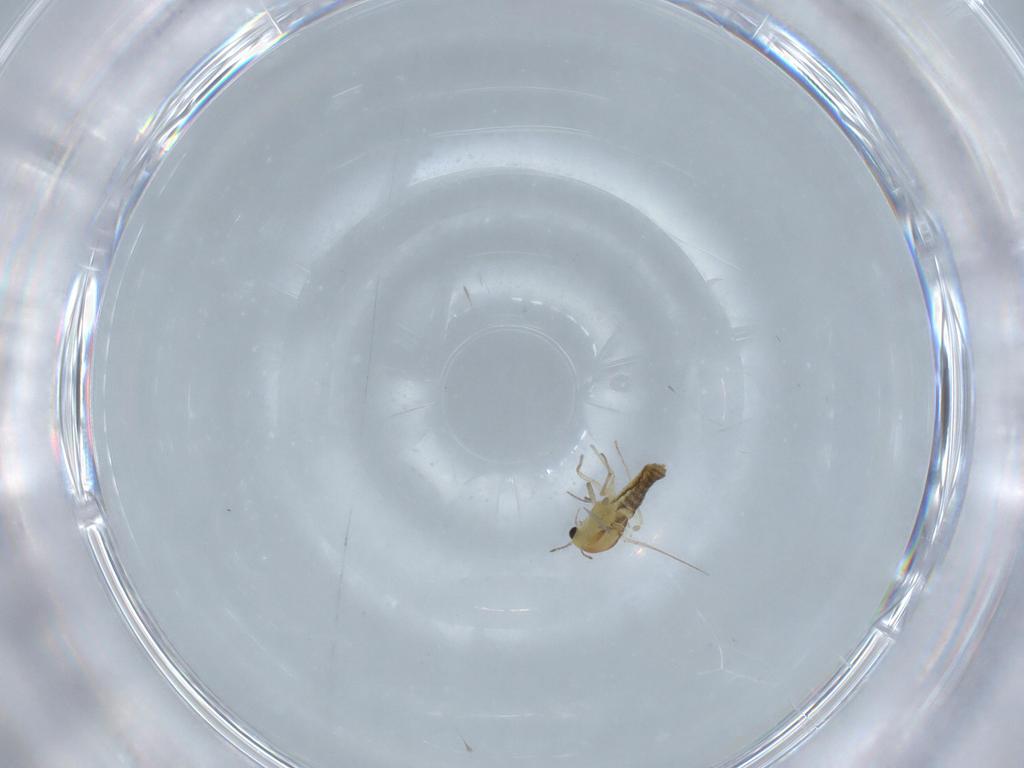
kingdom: Animalia
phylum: Arthropoda
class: Insecta
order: Diptera
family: Chironomidae
